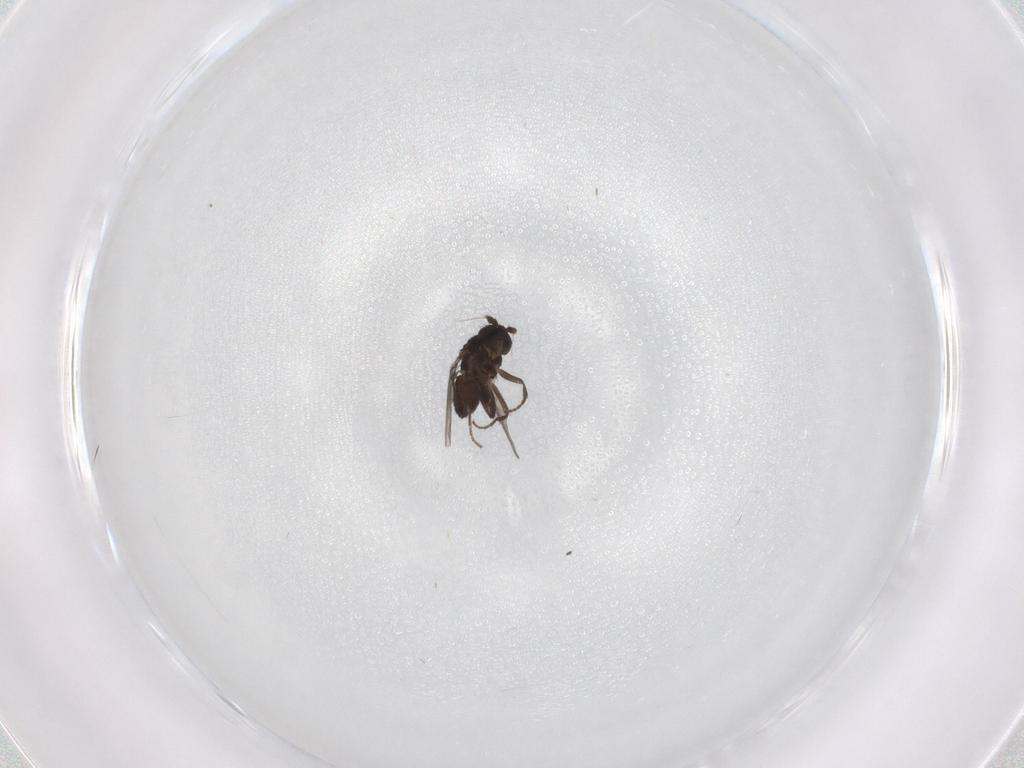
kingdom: Animalia
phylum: Arthropoda
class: Insecta
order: Diptera
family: Sphaeroceridae
